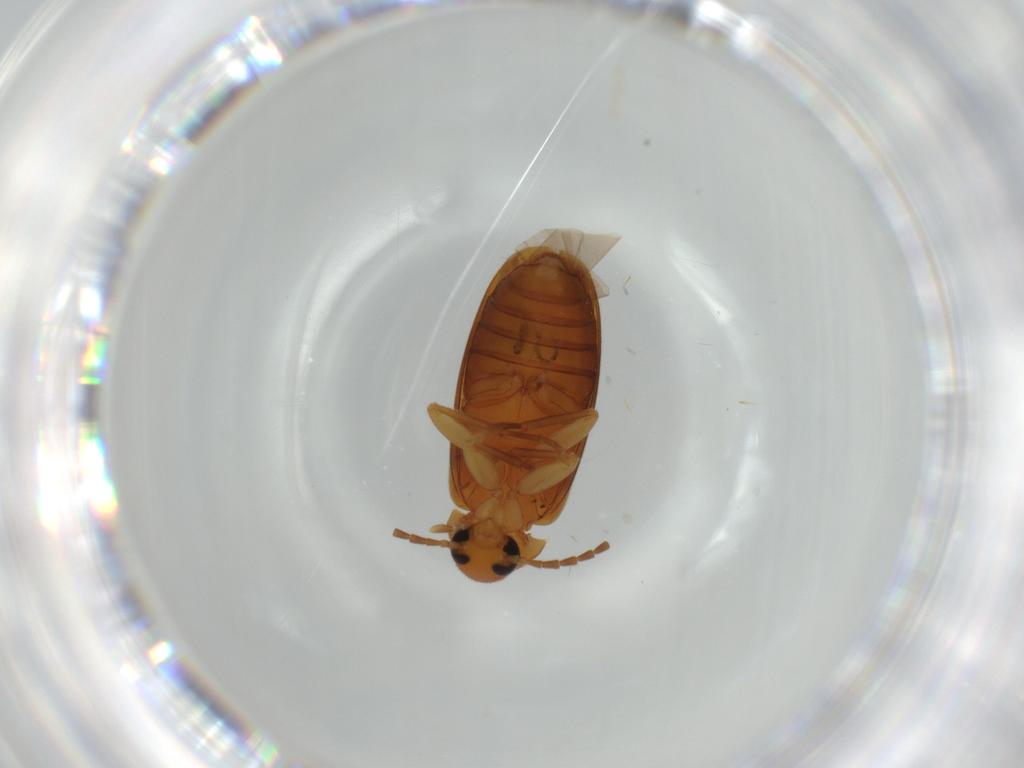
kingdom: Animalia
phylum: Arthropoda
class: Insecta
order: Coleoptera
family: Scraptiidae
